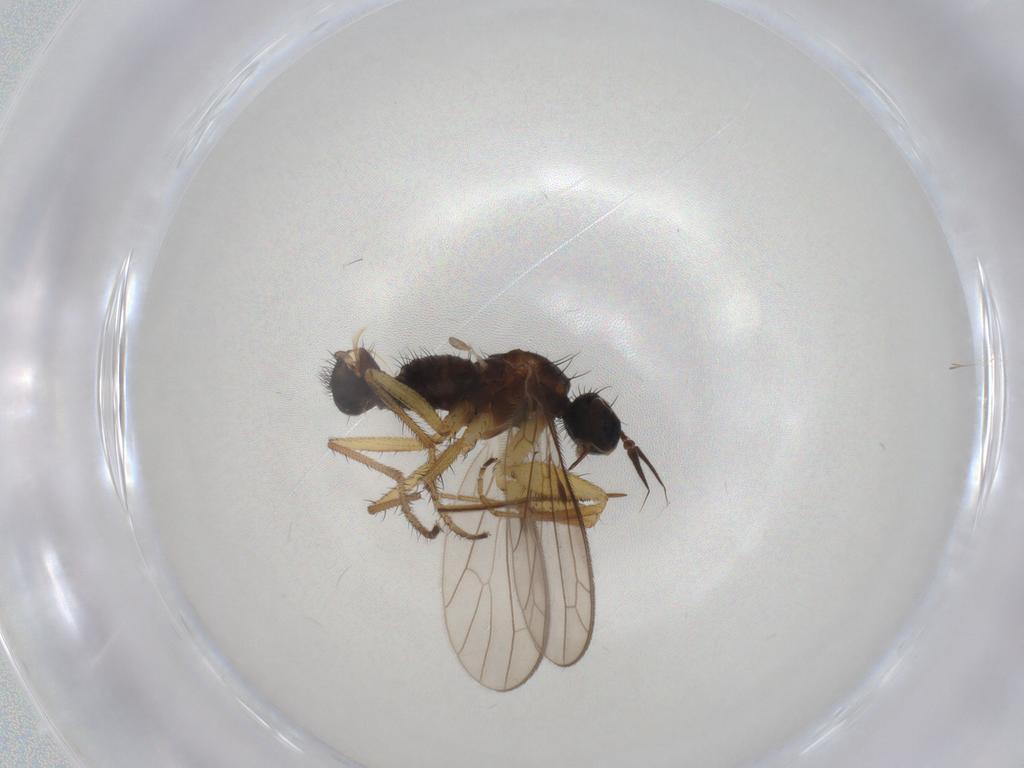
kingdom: Animalia
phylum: Arthropoda
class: Insecta
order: Diptera
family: Empididae
